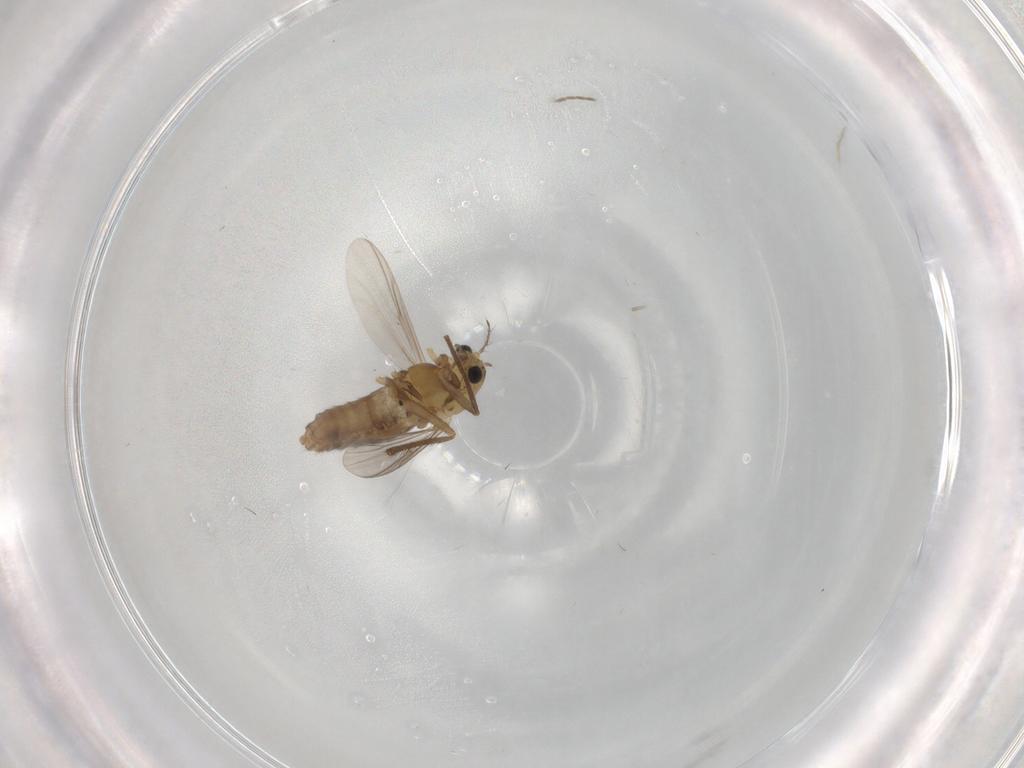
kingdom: Animalia
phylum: Arthropoda
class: Insecta
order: Diptera
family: Chironomidae
